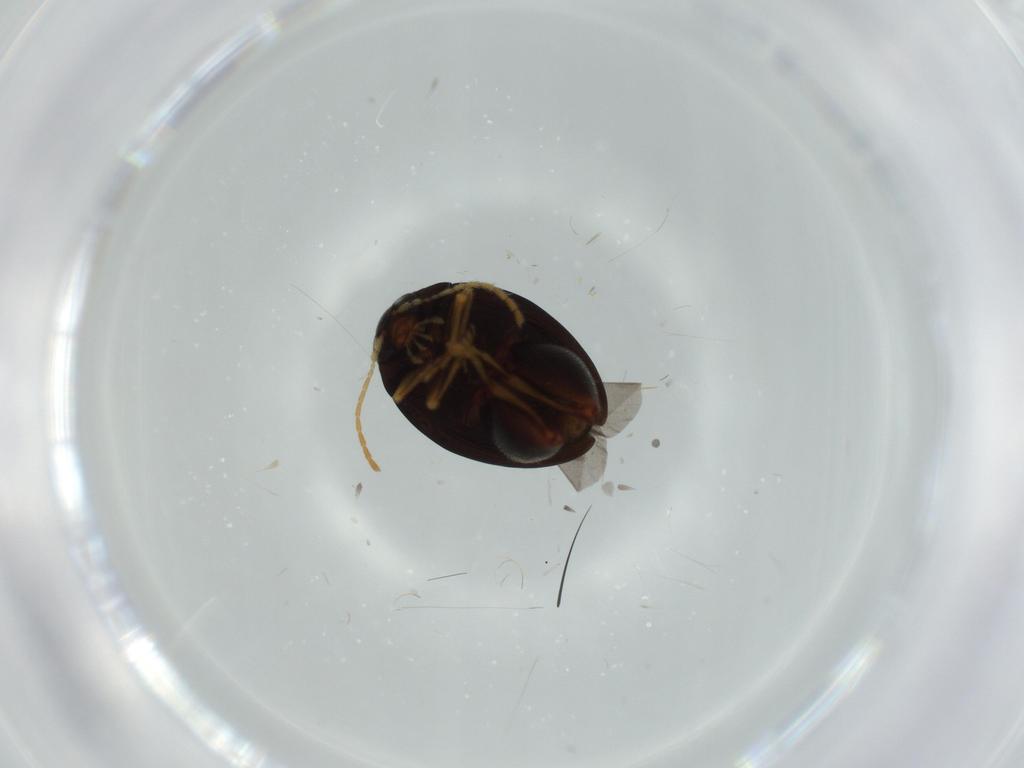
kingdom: Animalia
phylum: Arthropoda
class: Insecta
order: Coleoptera
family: Chrysomelidae
